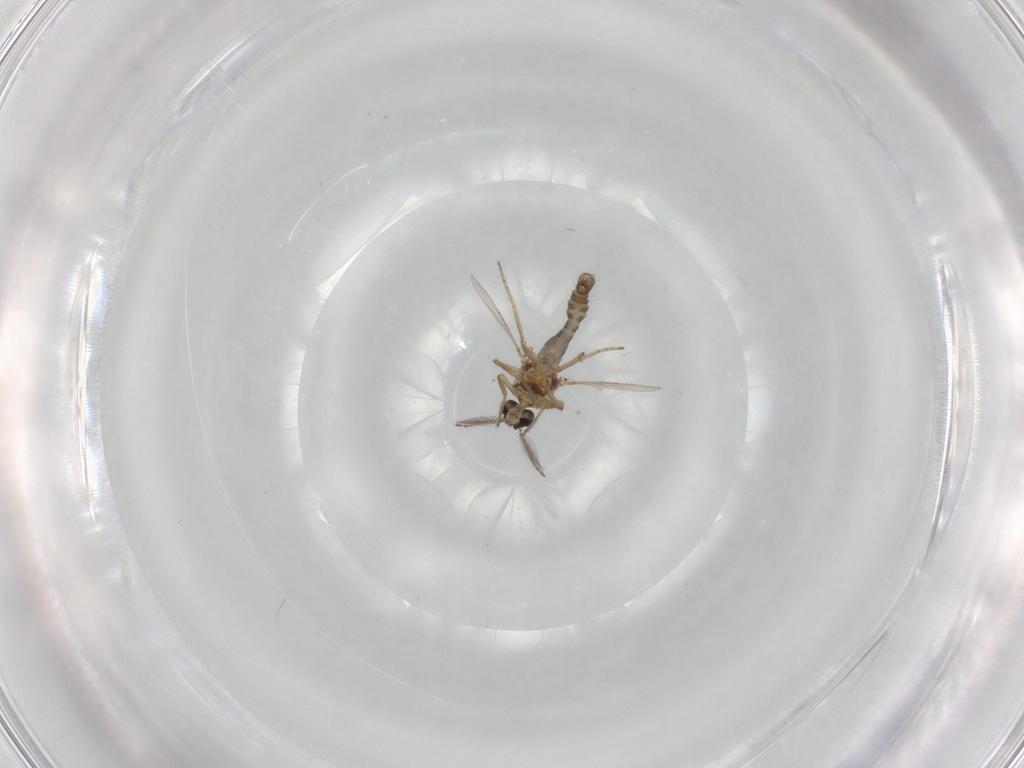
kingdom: Animalia
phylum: Arthropoda
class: Insecta
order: Diptera
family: Ceratopogonidae
